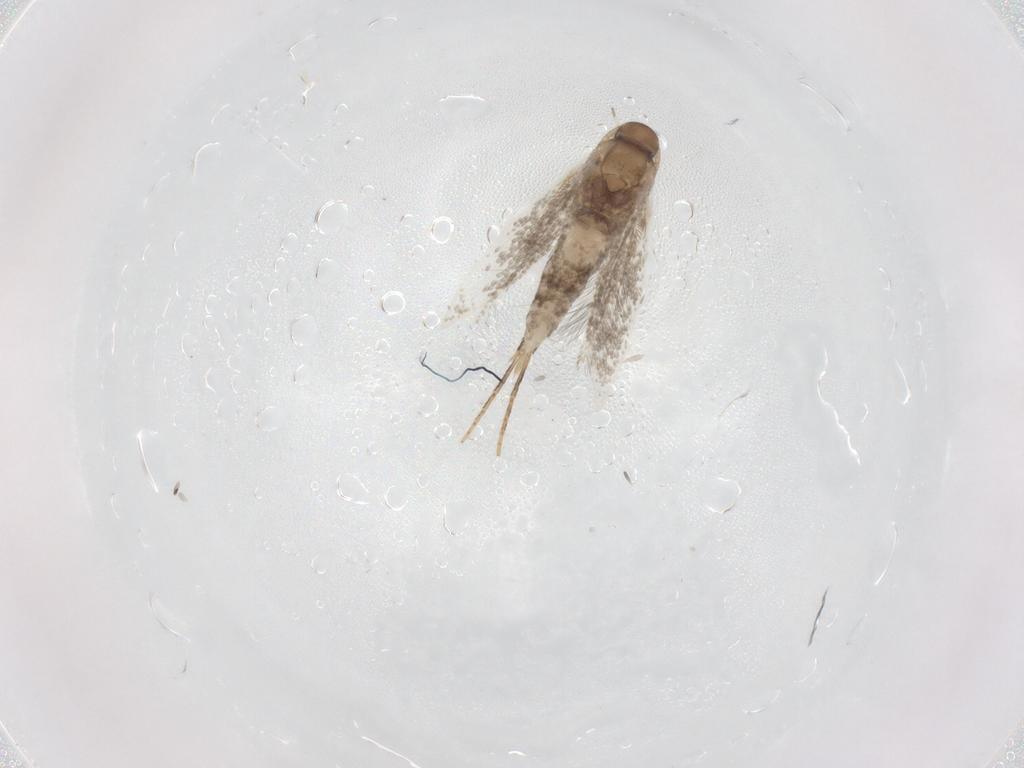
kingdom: Animalia
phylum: Arthropoda
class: Insecta
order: Lepidoptera
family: Elachistidae
